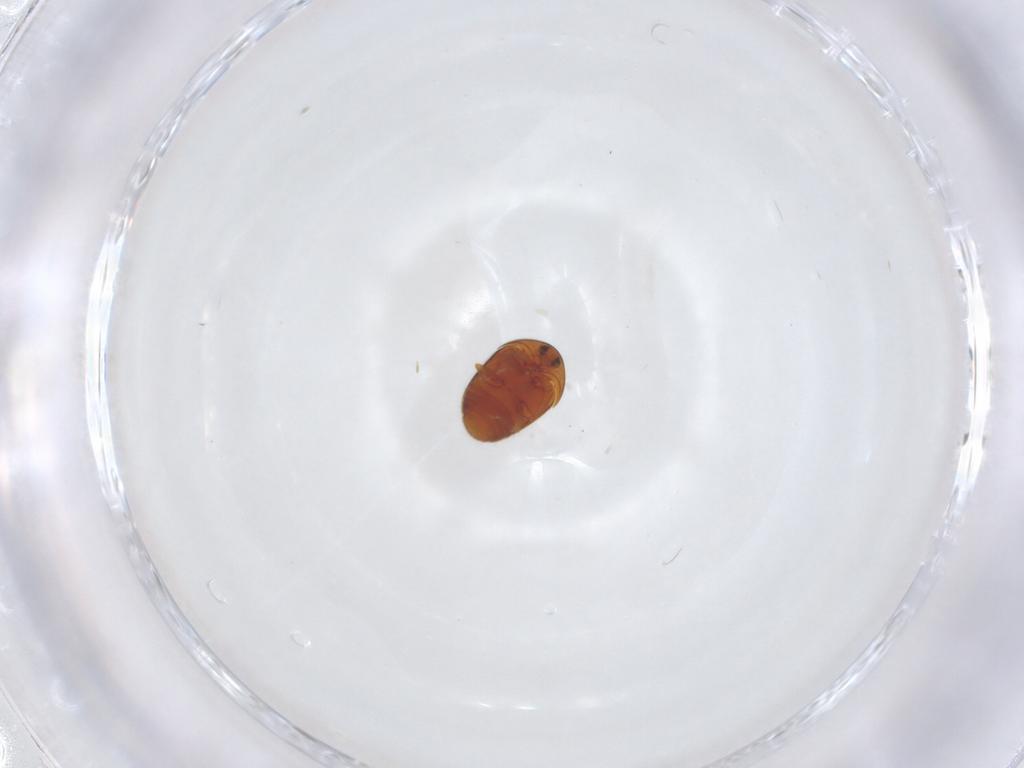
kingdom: Animalia
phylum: Arthropoda
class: Insecta
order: Coleoptera
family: Corylophidae
